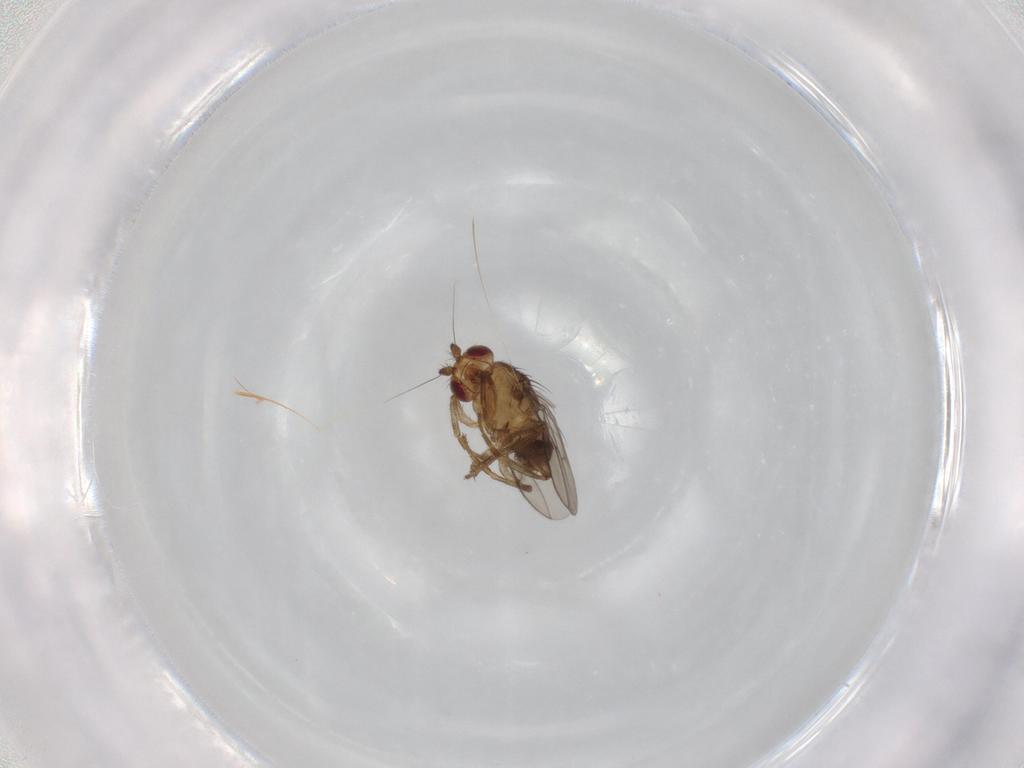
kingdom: Animalia
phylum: Arthropoda
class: Insecta
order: Diptera
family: Sphaeroceridae
